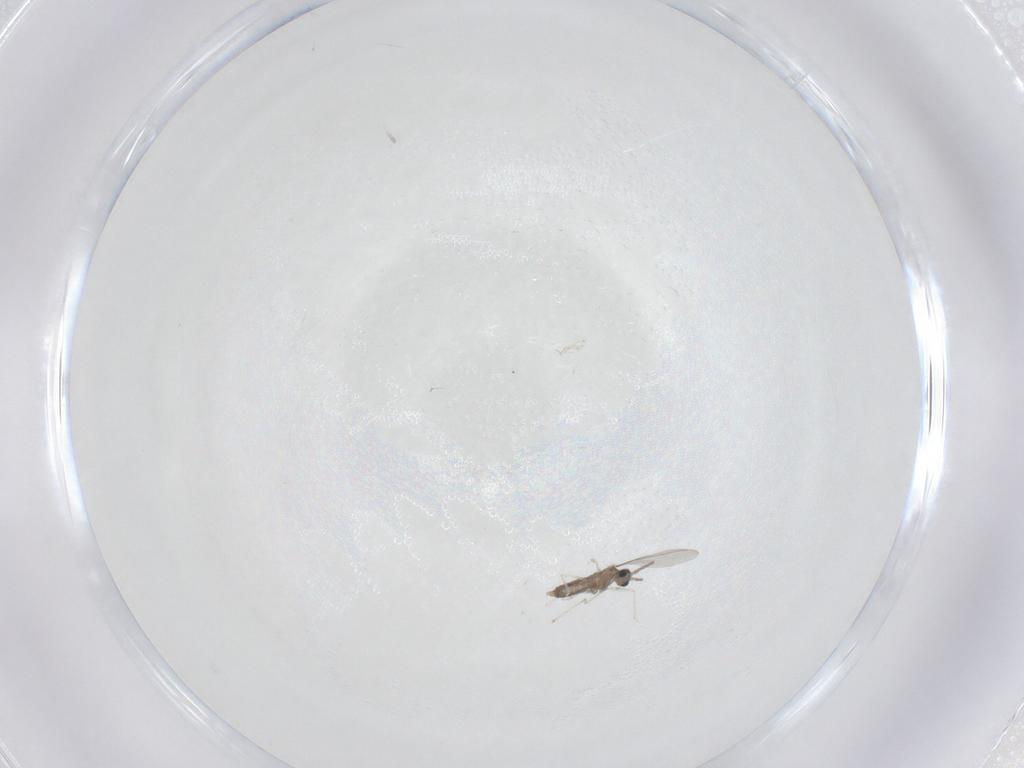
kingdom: Animalia
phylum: Arthropoda
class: Insecta
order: Diptera
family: Cecidomyiidae
